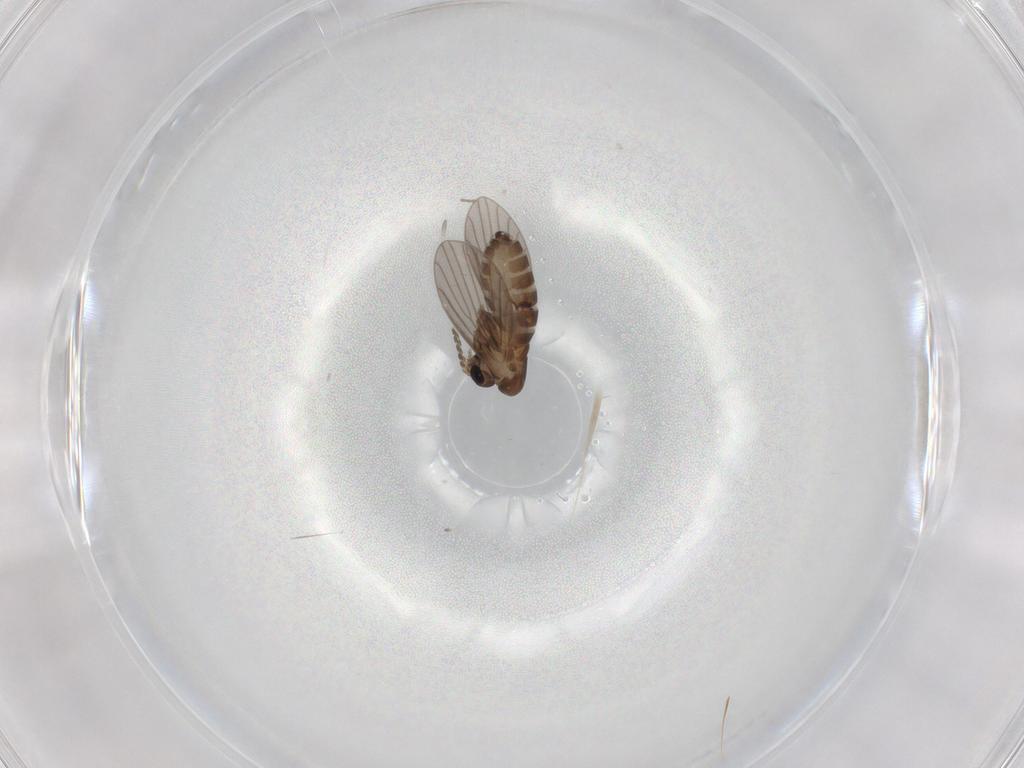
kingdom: Animalia
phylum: Arthropoda
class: Insecta
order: Diptera
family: Psychodidae
